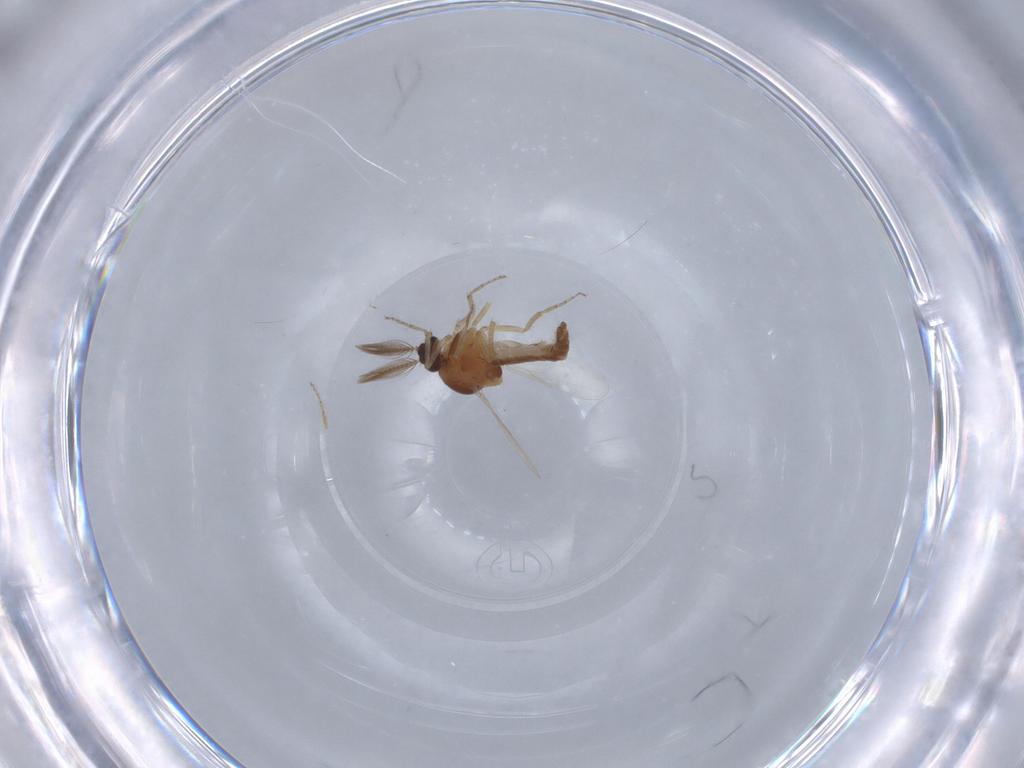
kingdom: Animalia
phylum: Arthropoda
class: Insecta
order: Diptera
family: Ceratopogonidae
